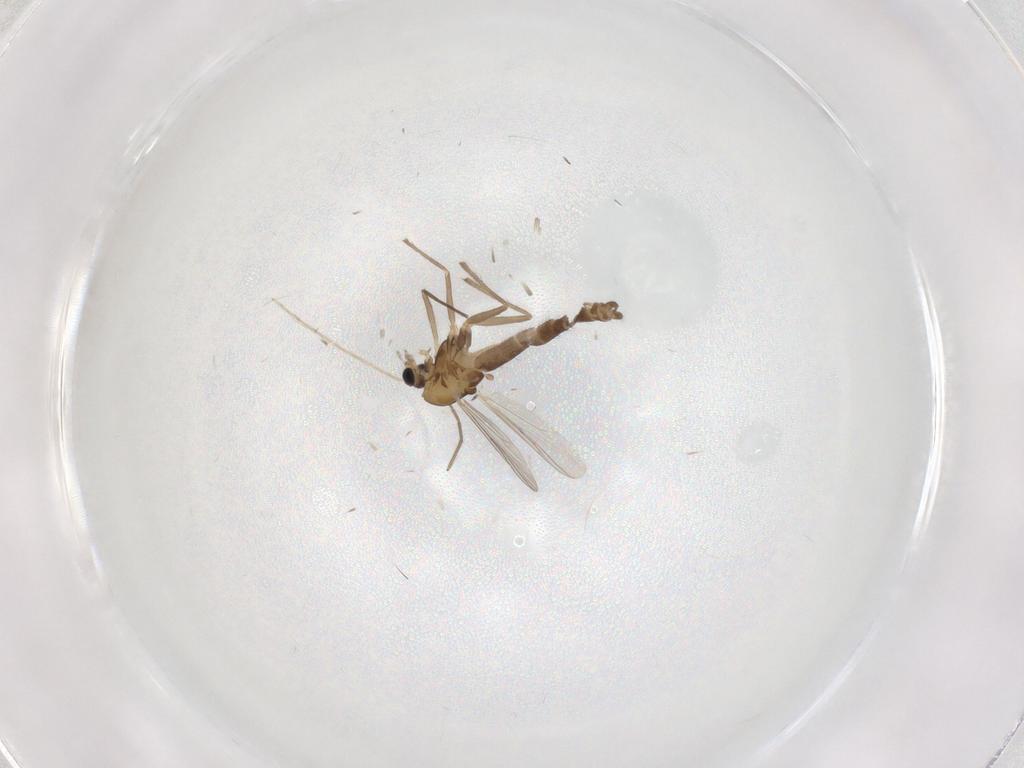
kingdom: Animalia
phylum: Arthropoda
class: Insecta
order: Diptera
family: Chironomidae
